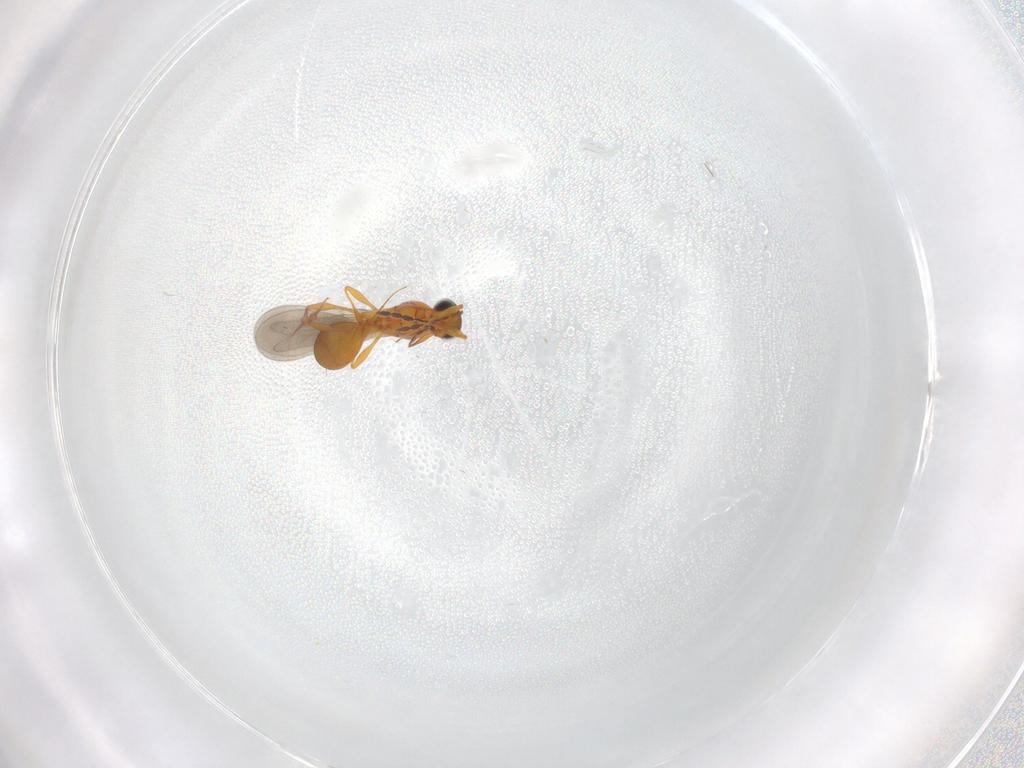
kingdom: Animalia
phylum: Arthropoda
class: Insecta
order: Hymenoptera
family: Platygastridae
